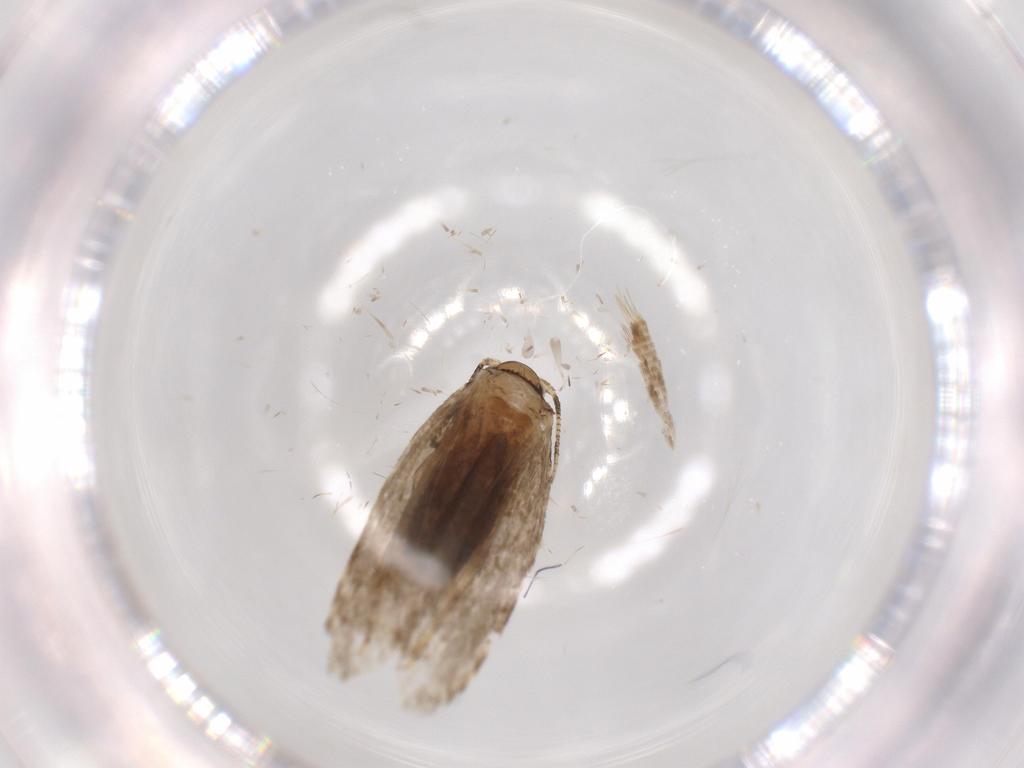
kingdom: Animalia
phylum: Arthropoda
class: Insecta
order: Lepidoptera
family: Tineidae
